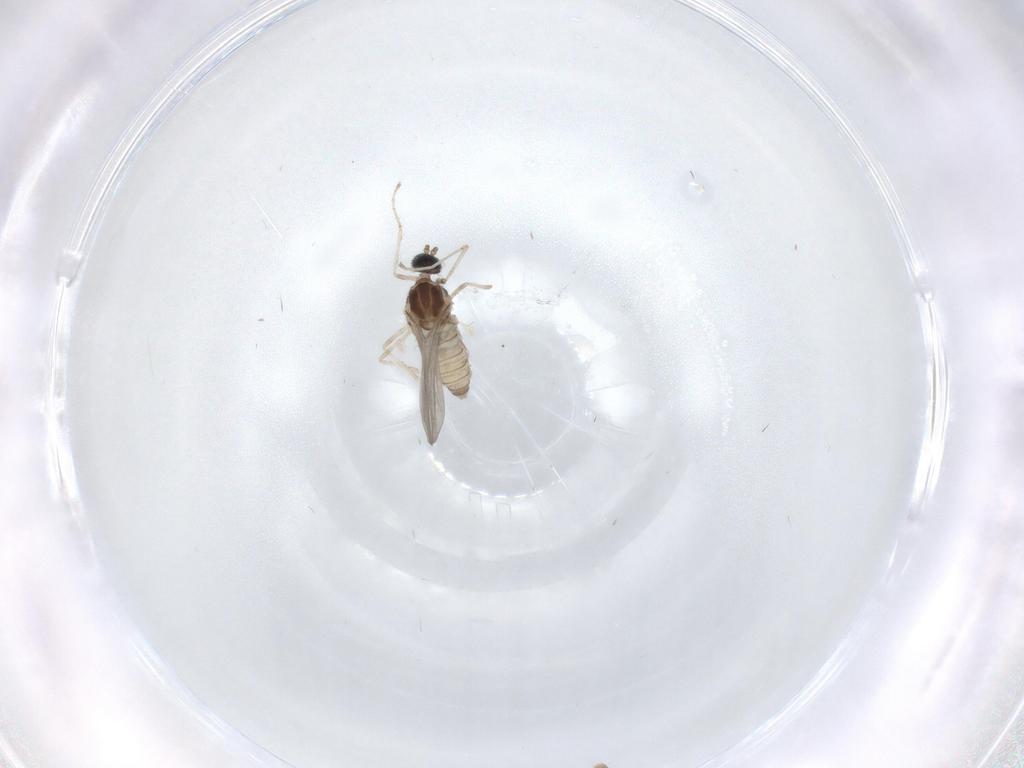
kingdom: Animalia
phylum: Arthropoda
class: Insecta
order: Diptera
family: Cecidomyiidae
